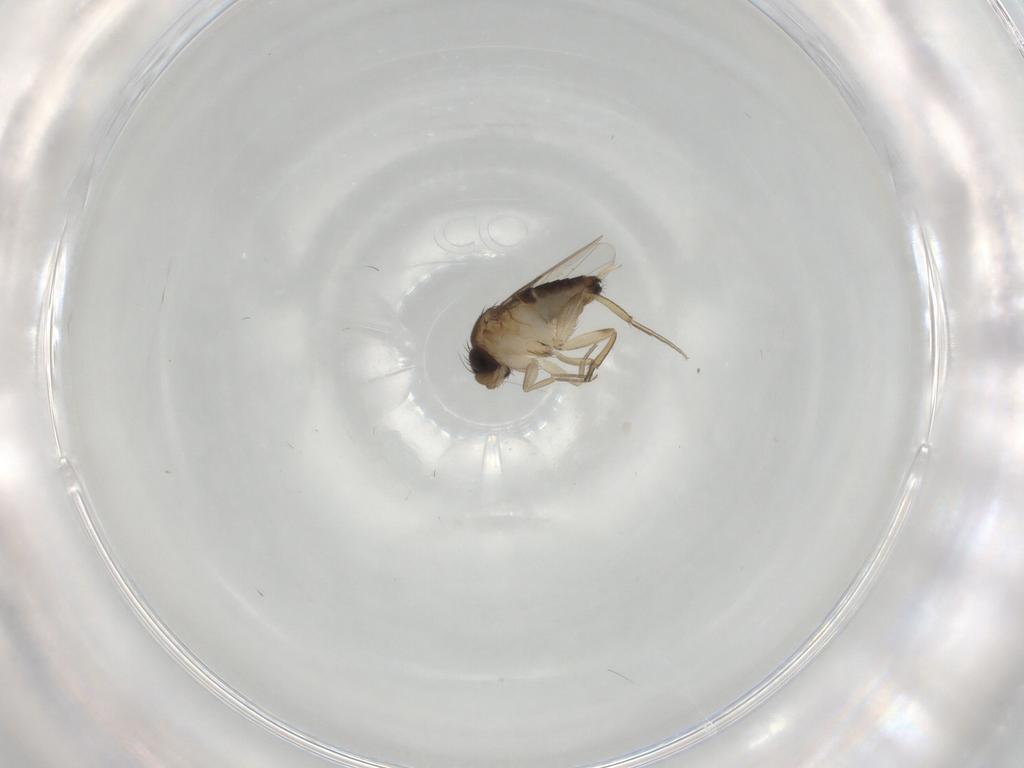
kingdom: Animalia
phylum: Arthropoda
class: Insecta
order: Diptera
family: Phoridae
